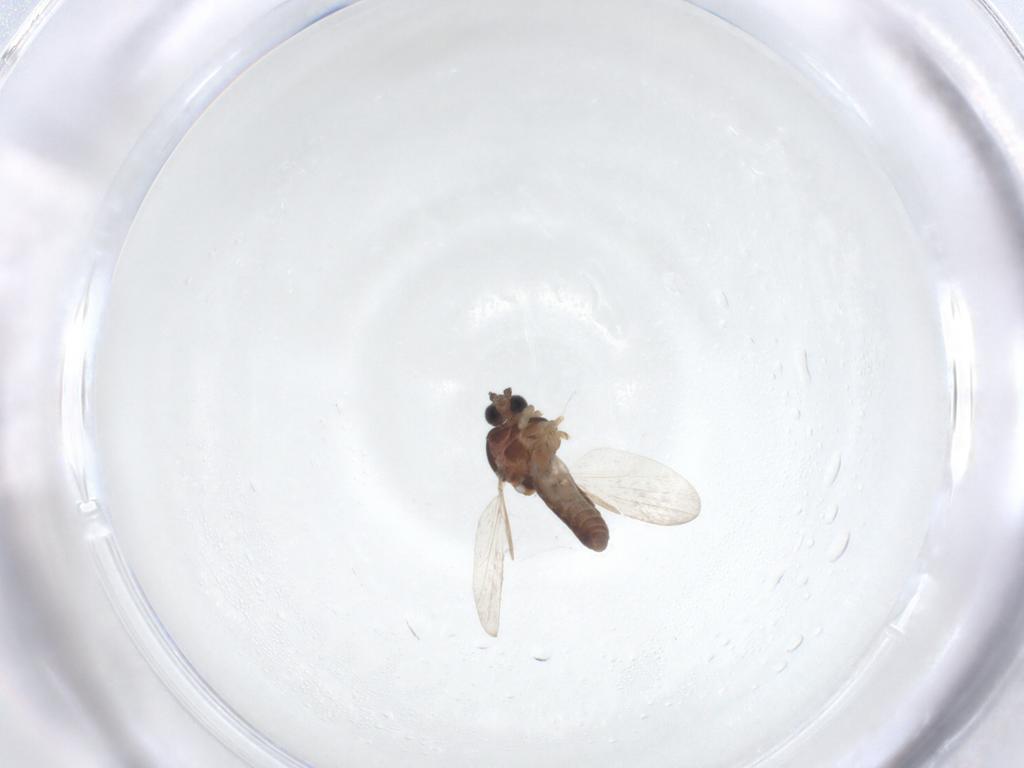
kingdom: Animalia
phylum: Arthropoda
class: Insecta
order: Diptera
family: Ceratopogonidae
